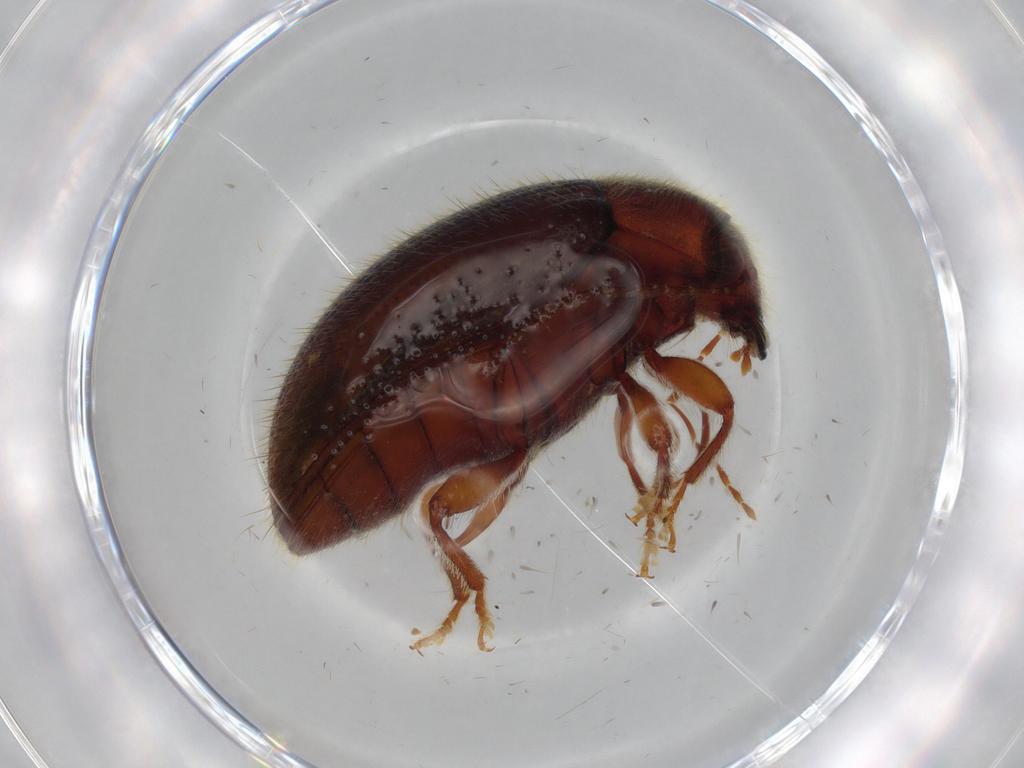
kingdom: Animalia
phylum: Arthropoda
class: Insecta
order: Coleoptera
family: Artematopodidae
